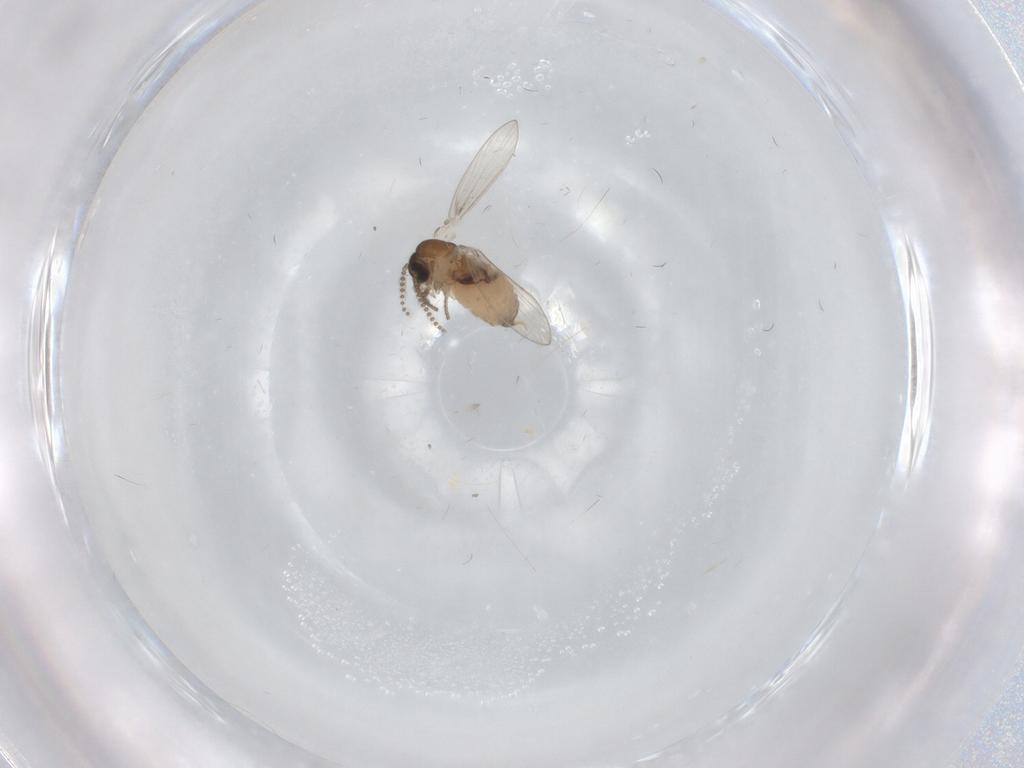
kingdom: Animalia
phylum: Arthropoda
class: Insecta
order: Diptera
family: Psychodidae
